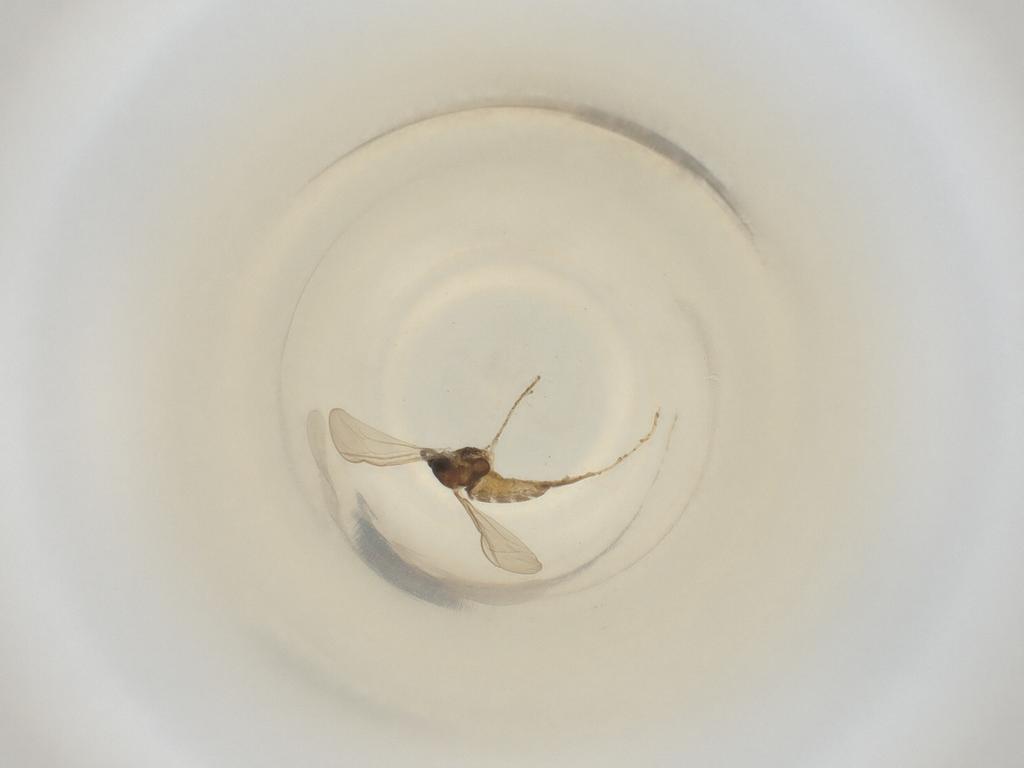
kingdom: Animalia
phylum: Arthropoda
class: Insecta
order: Diptera
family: Cecidomyiidae
